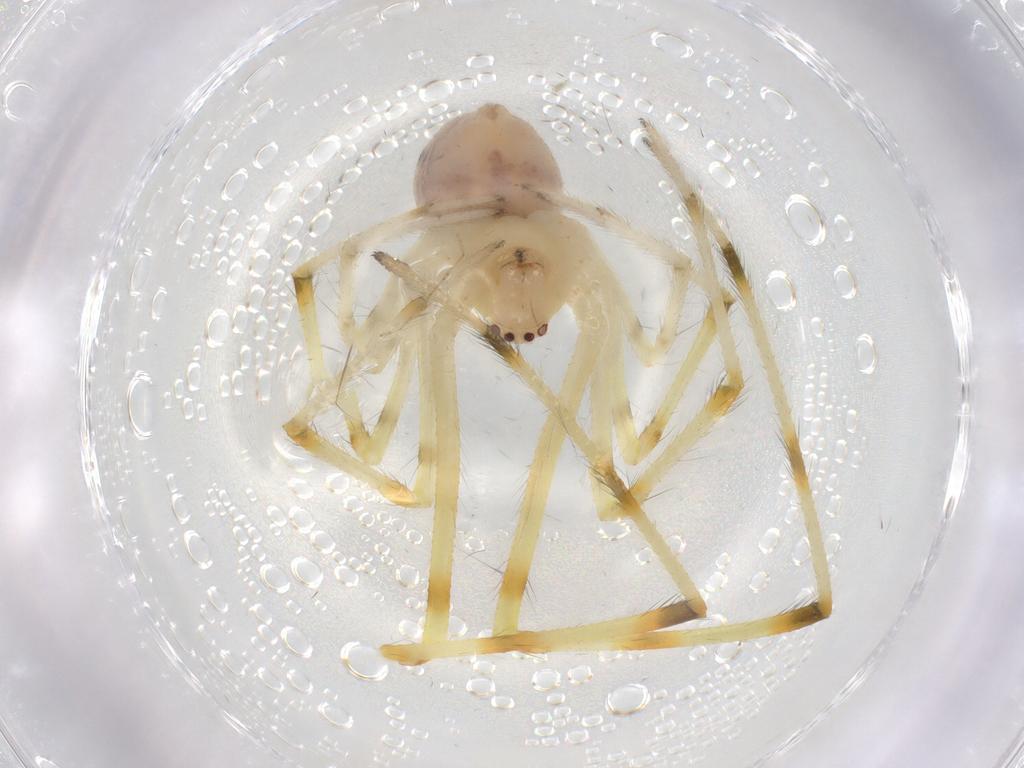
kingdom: Animalia
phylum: Arthropoda
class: Arachnida
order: Araneae
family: Theridiidae
